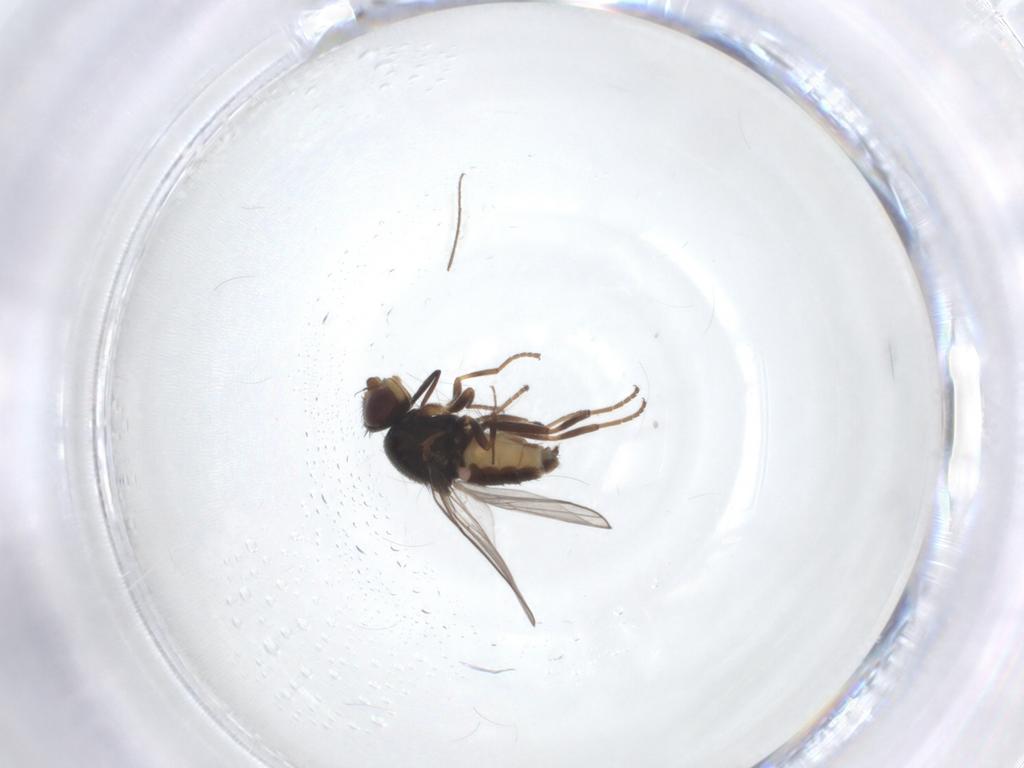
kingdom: Animalia
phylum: Arthropoda
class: Insecta
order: Diptera
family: Chloropidae
